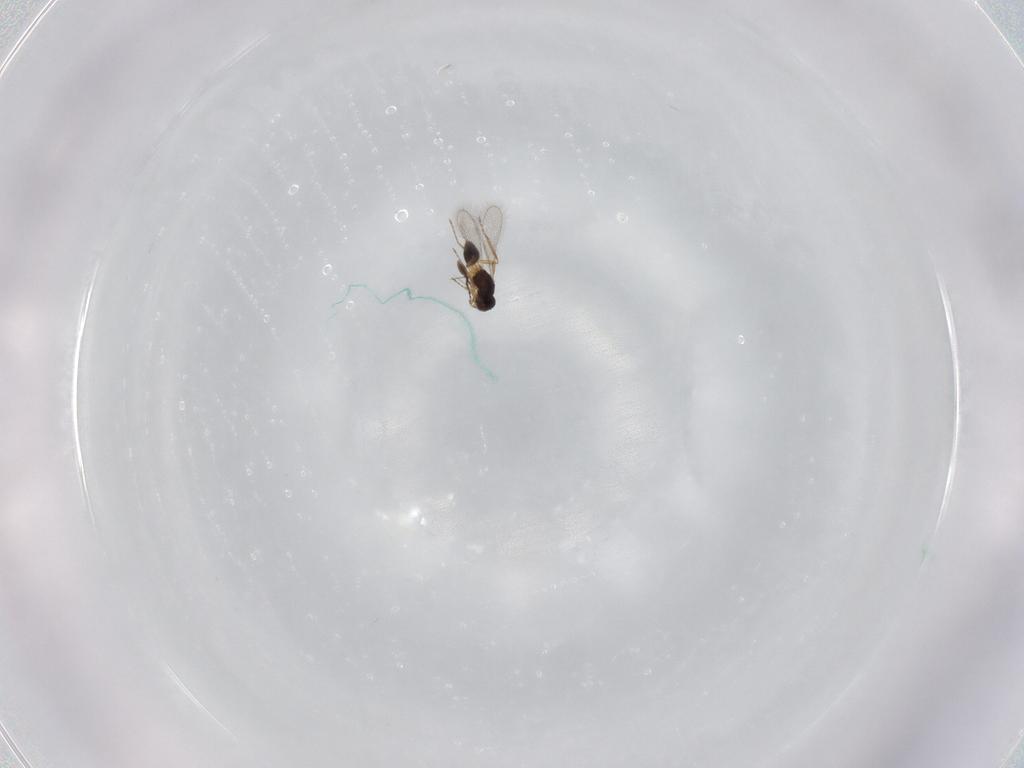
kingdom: Animalia
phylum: Arthropoda
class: Insecta
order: Hymenoptera
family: Mymaridae
